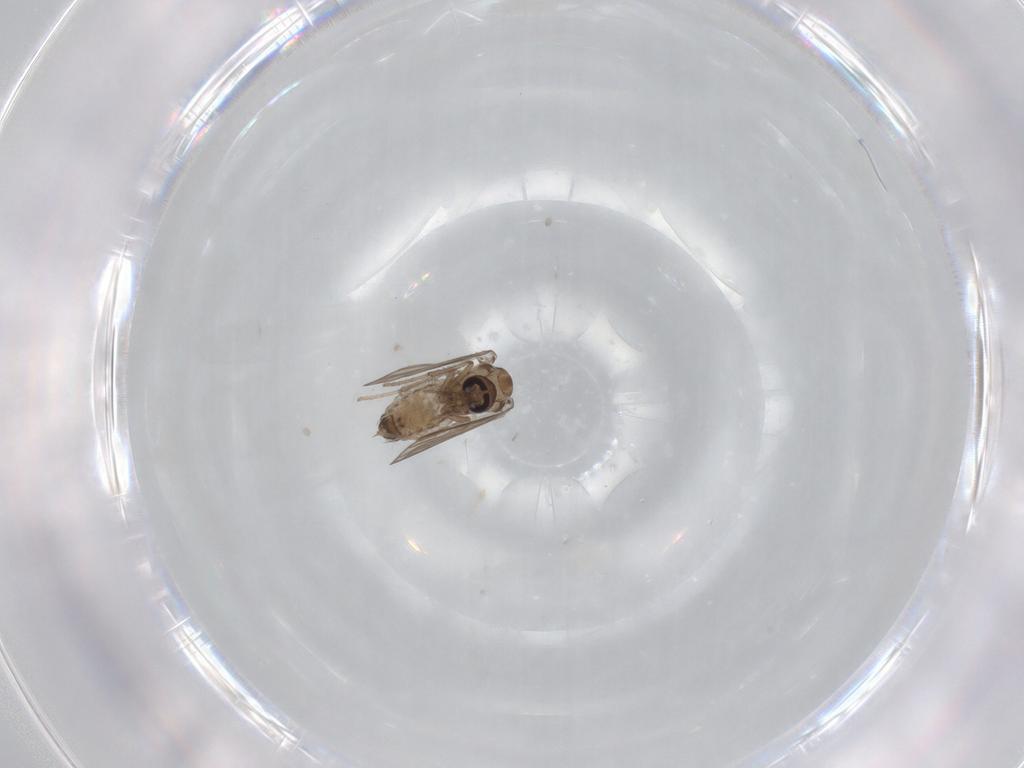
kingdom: Animalia
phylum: Arthropoda
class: Insecta
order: Diptera
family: Psychodidae
